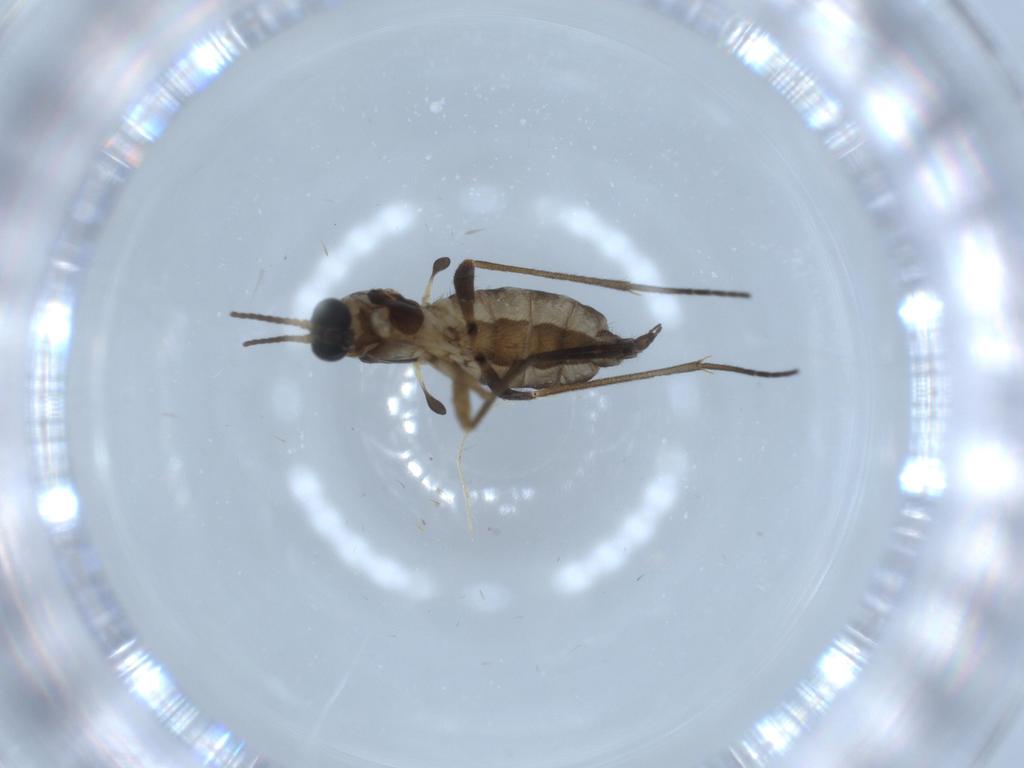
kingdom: Animalia
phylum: Arthropoda
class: Insecta
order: Diptera
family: Sciaridae
